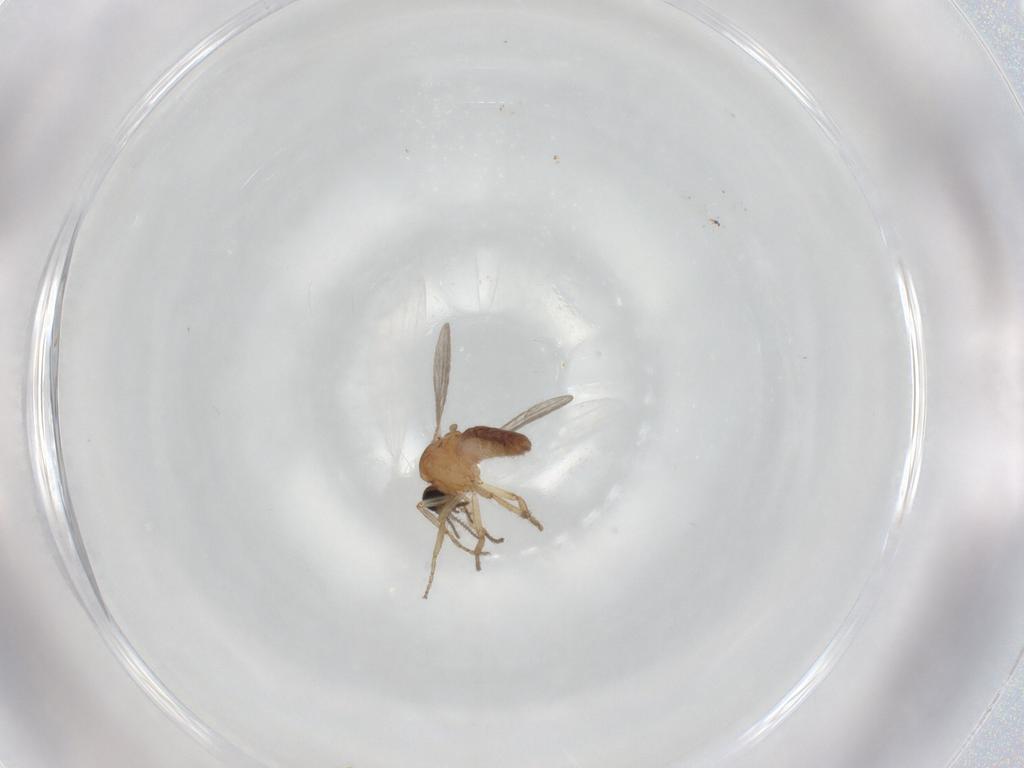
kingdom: Animalia
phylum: Arthropoda
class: Insecta
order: Diptera
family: Ceratopogonidae
